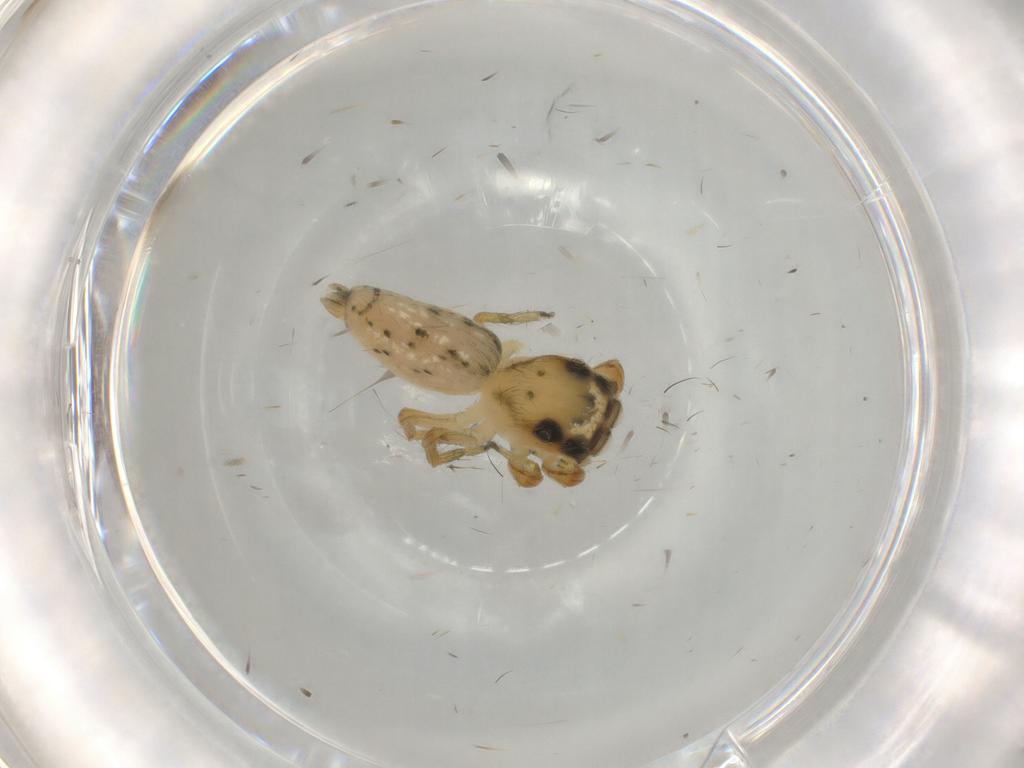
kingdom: Animalia
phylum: Arthropoda
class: Arachnida
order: Araneae
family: Salticidae
